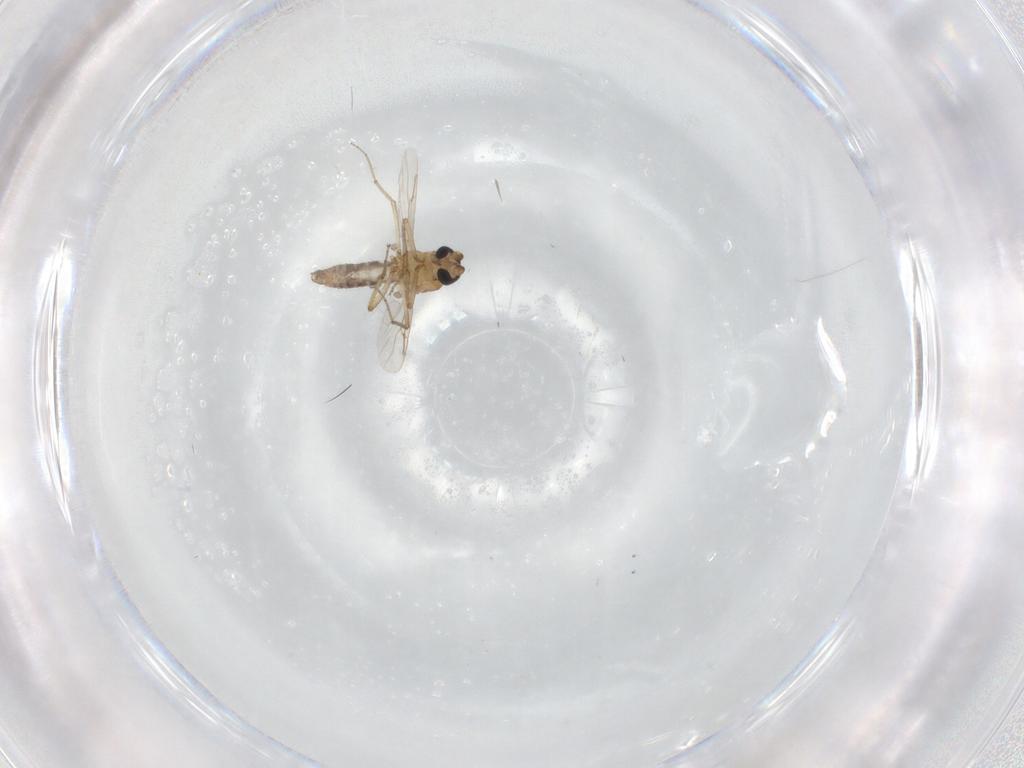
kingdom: Animalia
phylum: Arthropoda
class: Insecta
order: Diptera
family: Ceratopogonidae
